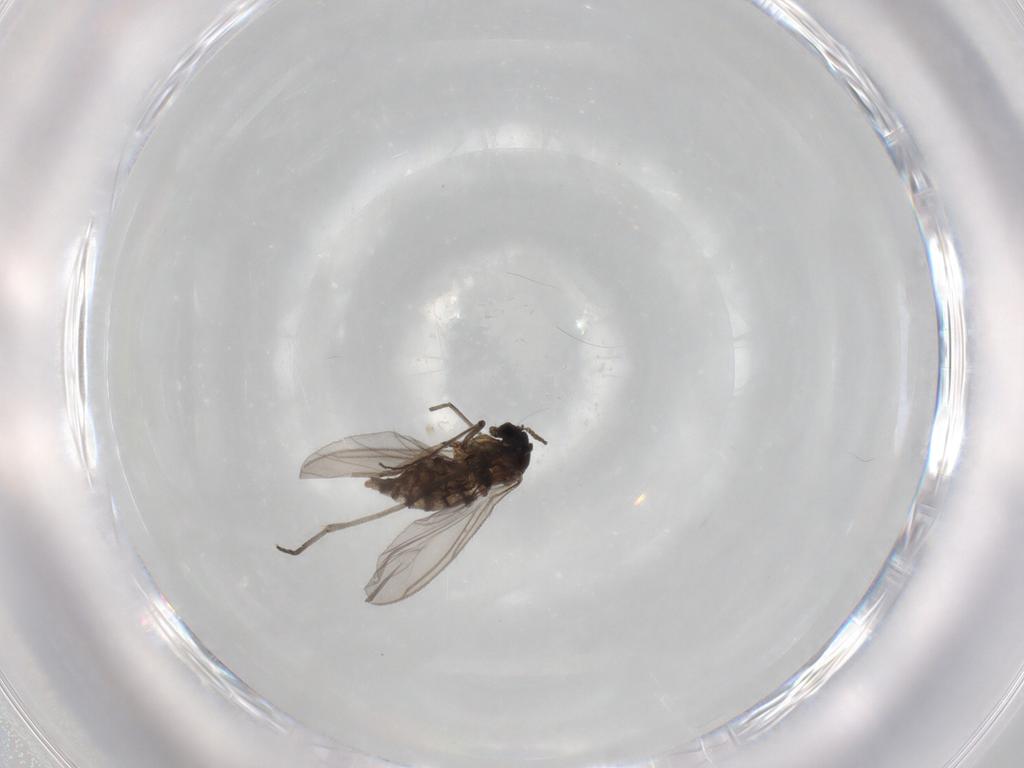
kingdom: Animalia
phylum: Arthropoda
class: Insecta
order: Diptera
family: Sciaridae
